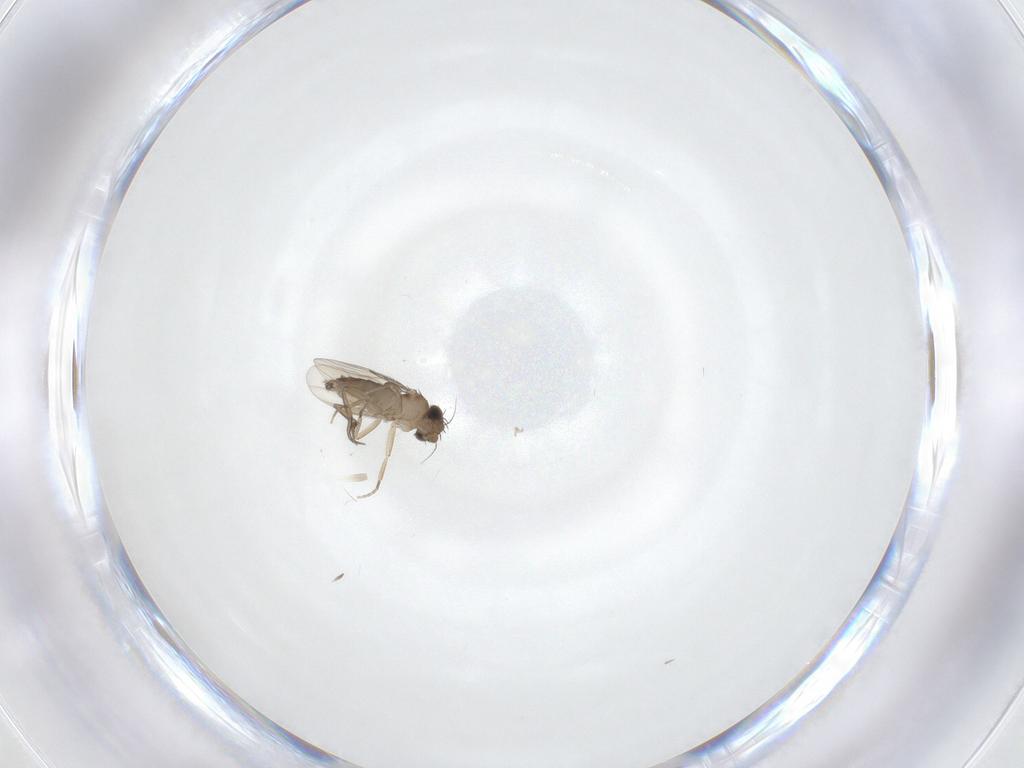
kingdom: Animalia
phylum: Arthropoda
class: Insecta
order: Diptera
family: Phoridae
